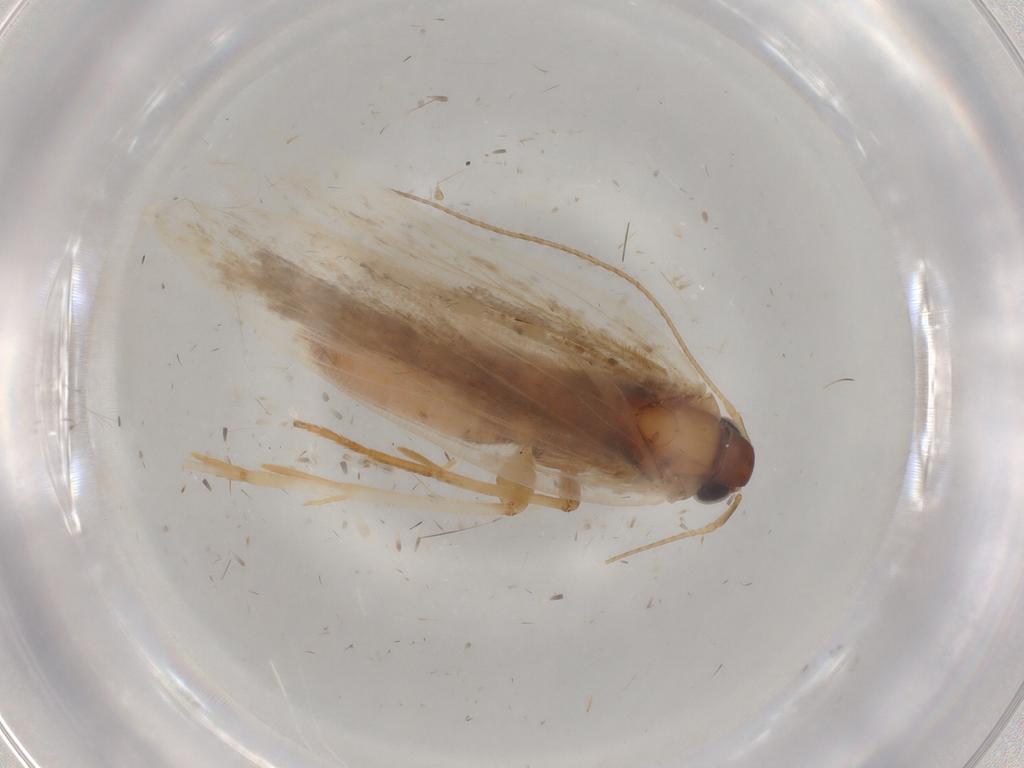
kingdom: Animalia
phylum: Arthropoda
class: Insecta
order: Lepidoptera
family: Gelechiidae
